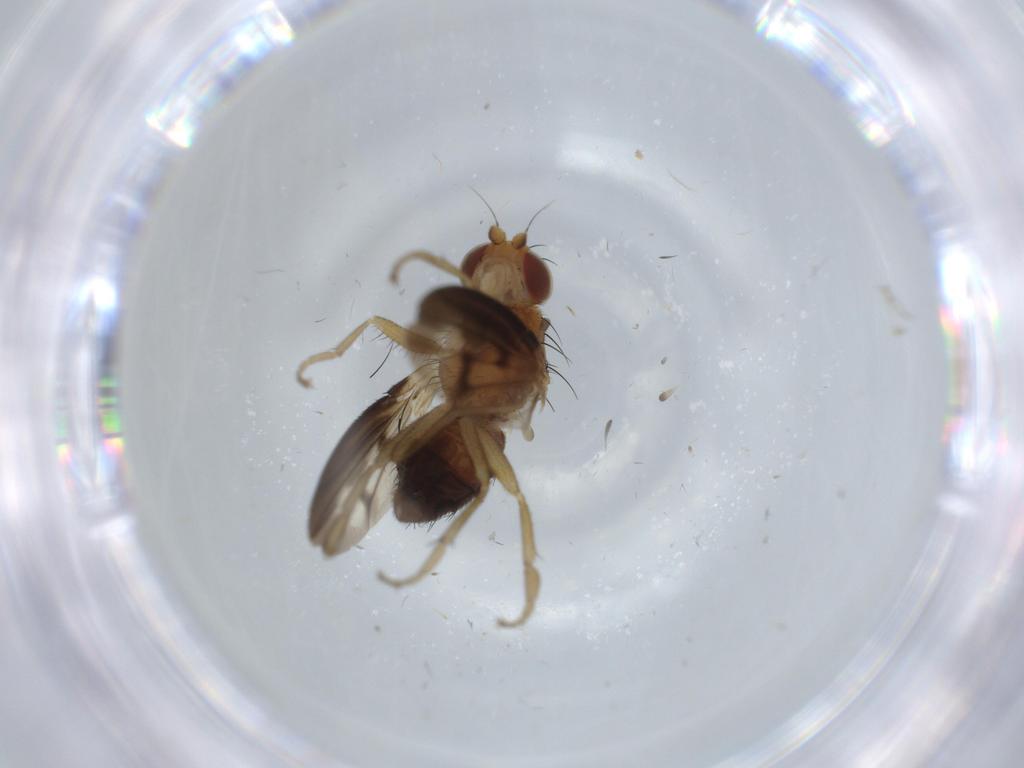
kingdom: Animalia
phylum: Arthropoda
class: Insecta
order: Diptera
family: Heleomyzidae
